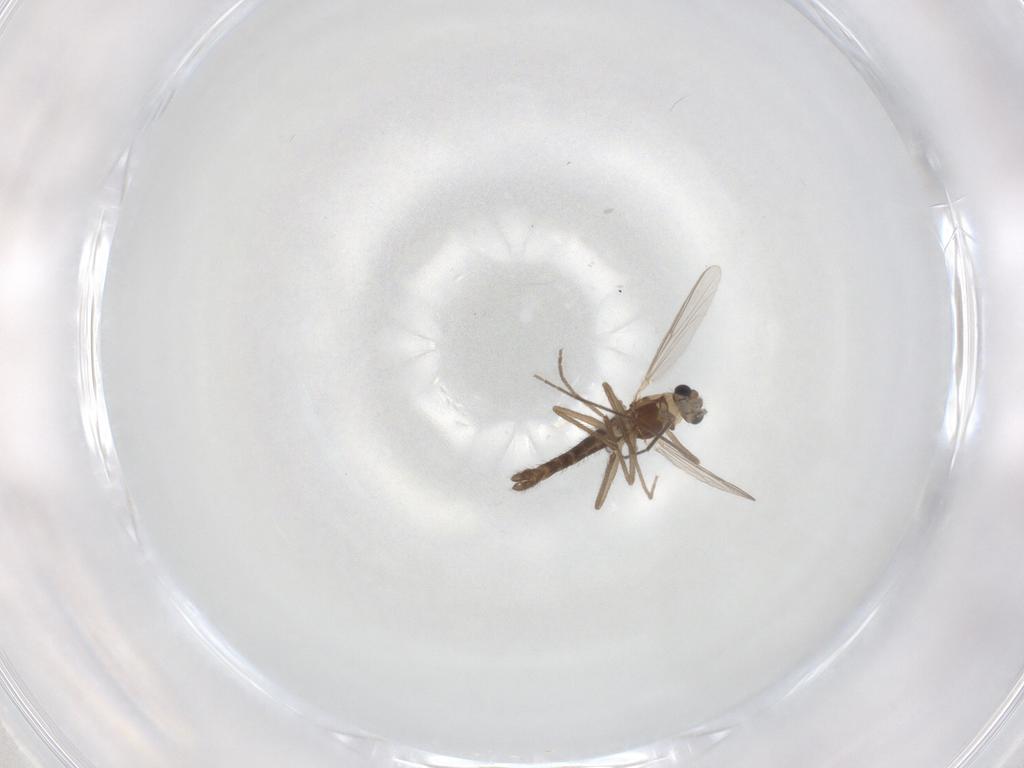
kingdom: Animalia
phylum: Arthropoda
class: Insecta
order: Diptera
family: Chironomidae
